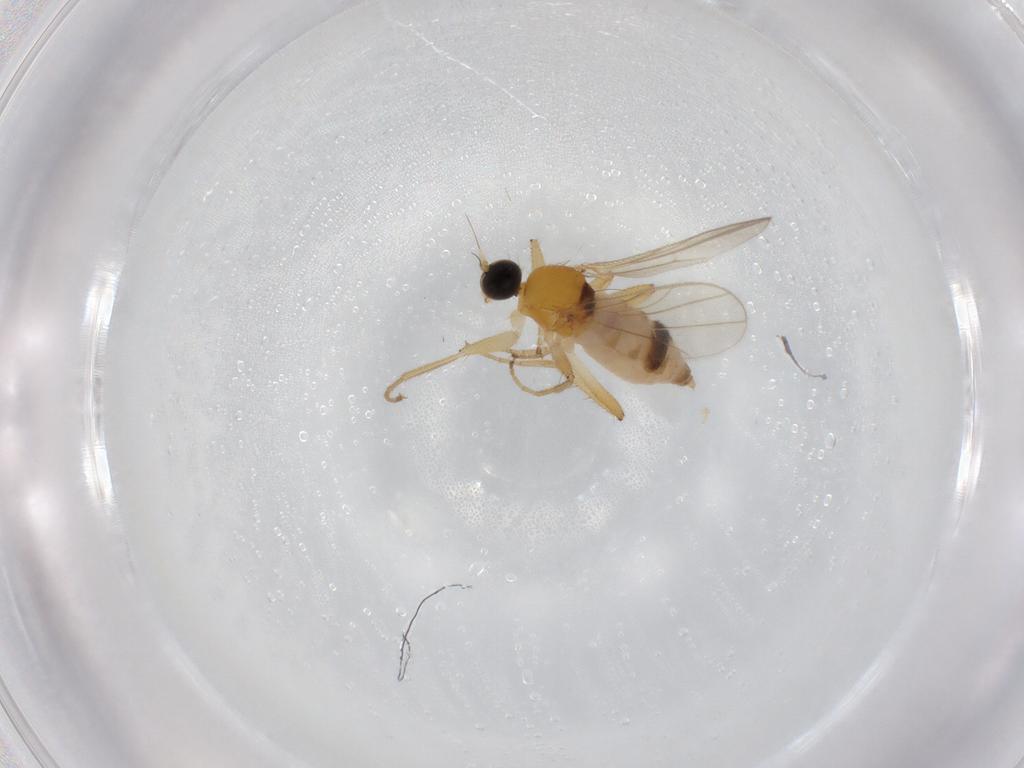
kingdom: Animalia
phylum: Arthropoda
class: Insecta
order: Diptera
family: Hybotidae
